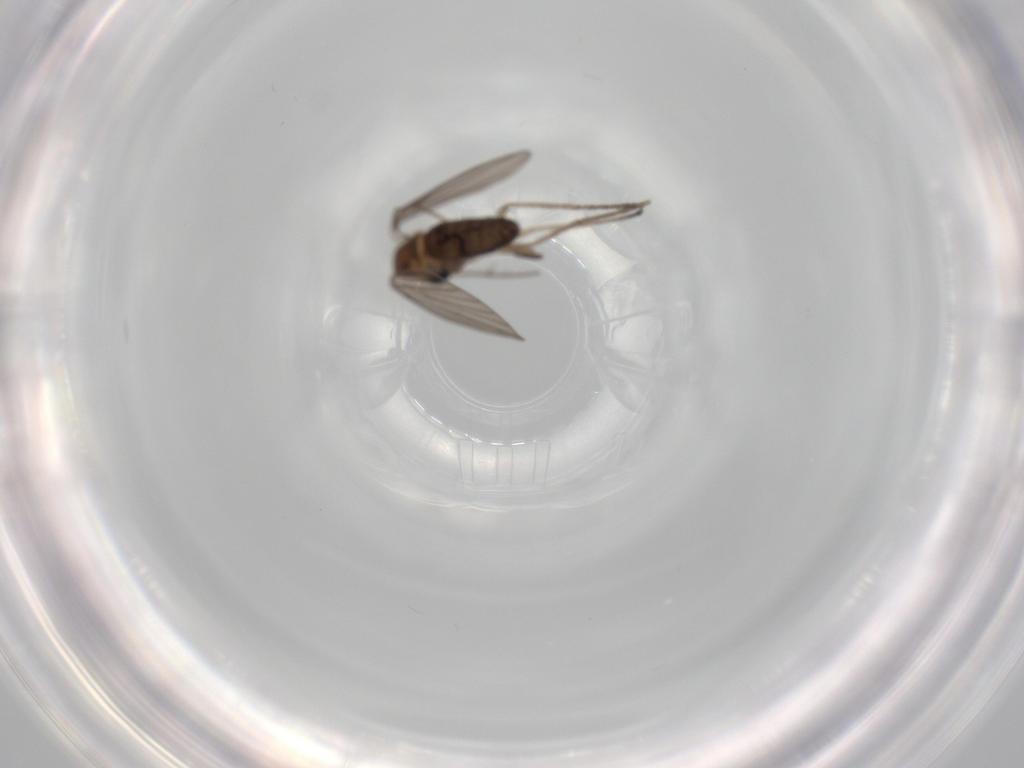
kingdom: Animalia
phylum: Arthropoda
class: Insecta
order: Diptera
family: Psychodidae
